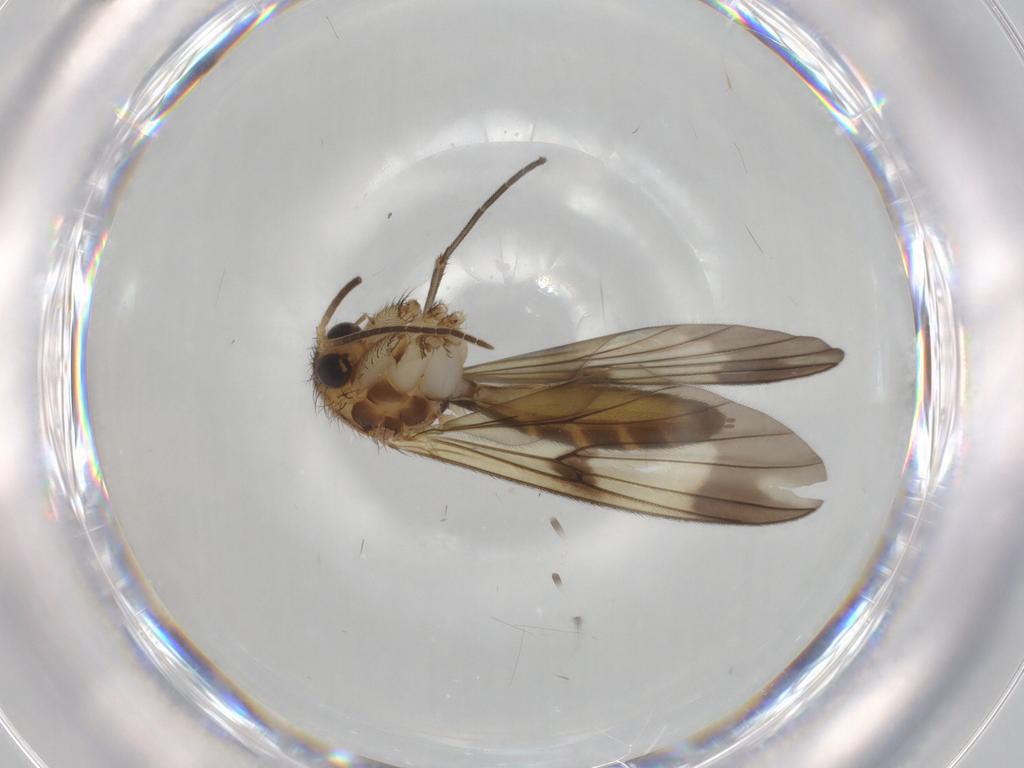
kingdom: Animalia
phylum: Arthropoda
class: Insecta
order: Diptera
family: Mycetophilidae
